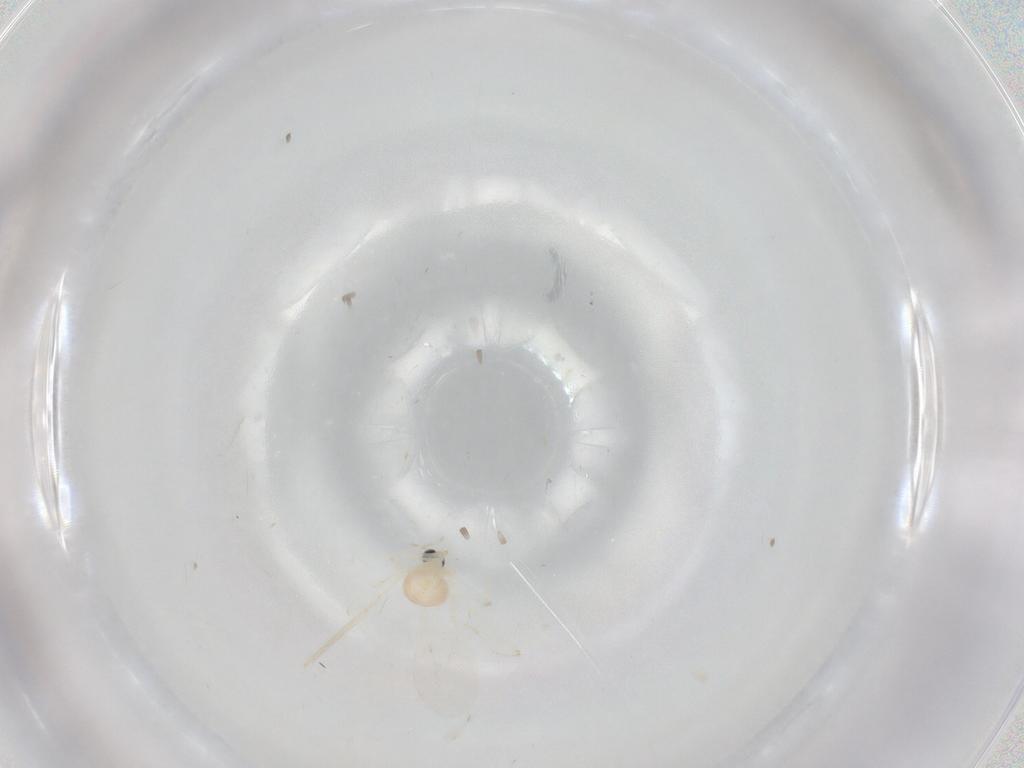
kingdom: Animalia
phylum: Arthropoda
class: Insecta
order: Diptera
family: Cecidomyiidae
